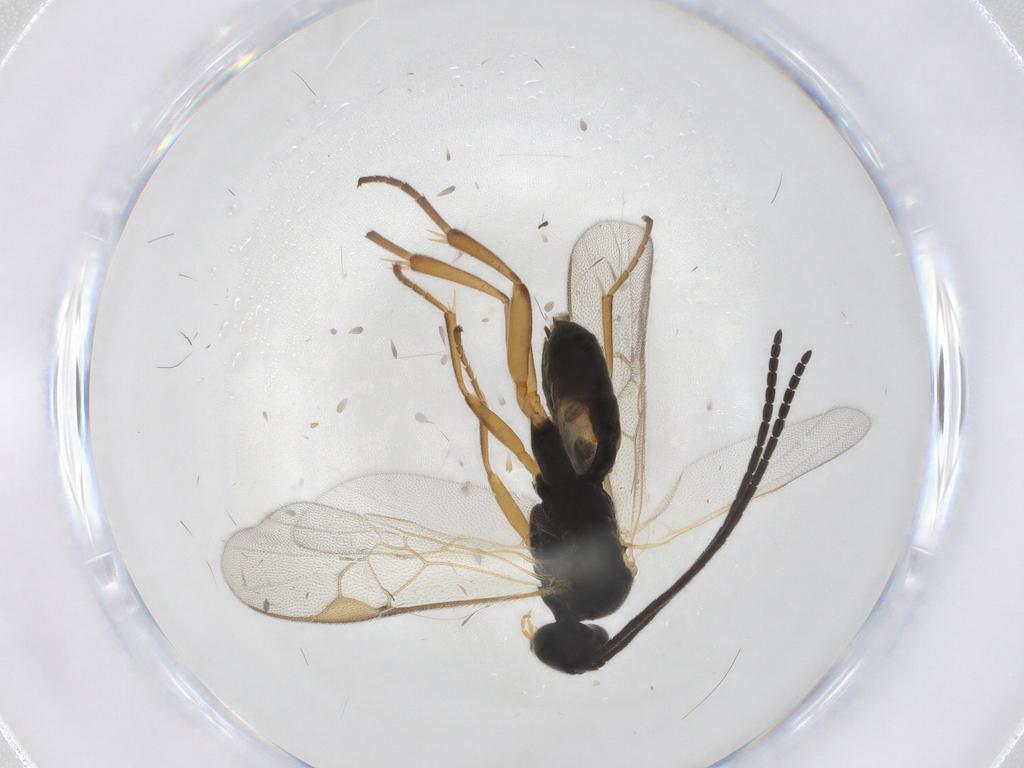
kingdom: Animalia
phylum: Arthropoda
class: Insecta
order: Hymenoptera
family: Braconidae
